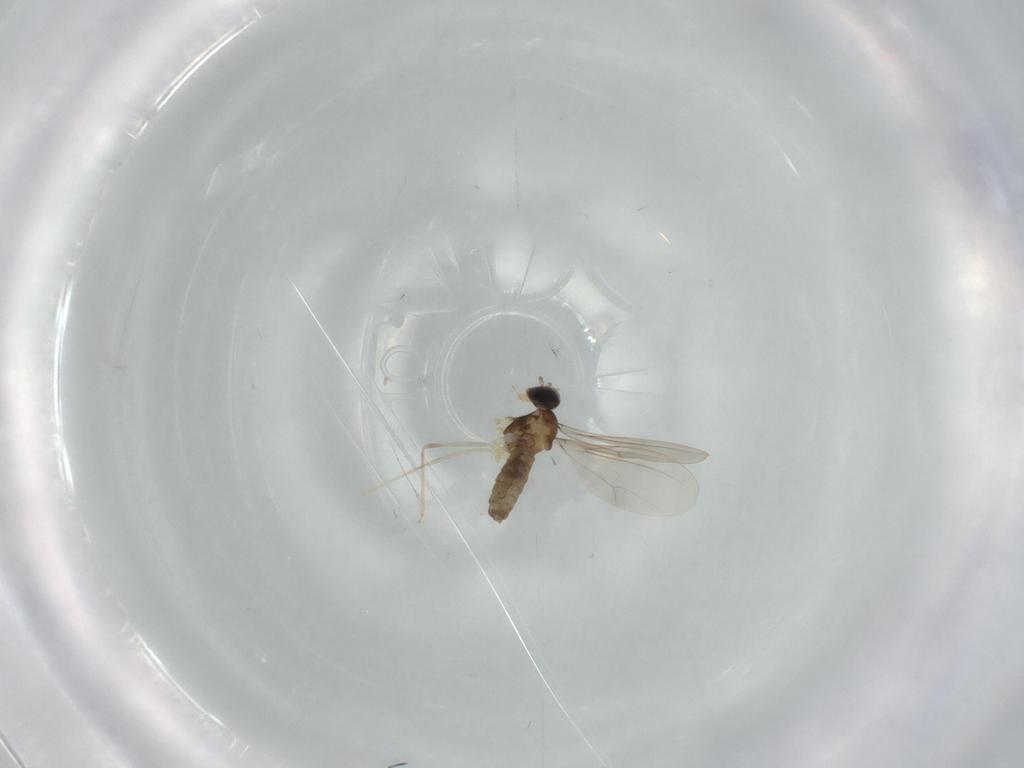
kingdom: Animalia
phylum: Arthropoda
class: Insecta
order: Diptera
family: Cecidomyiidae
